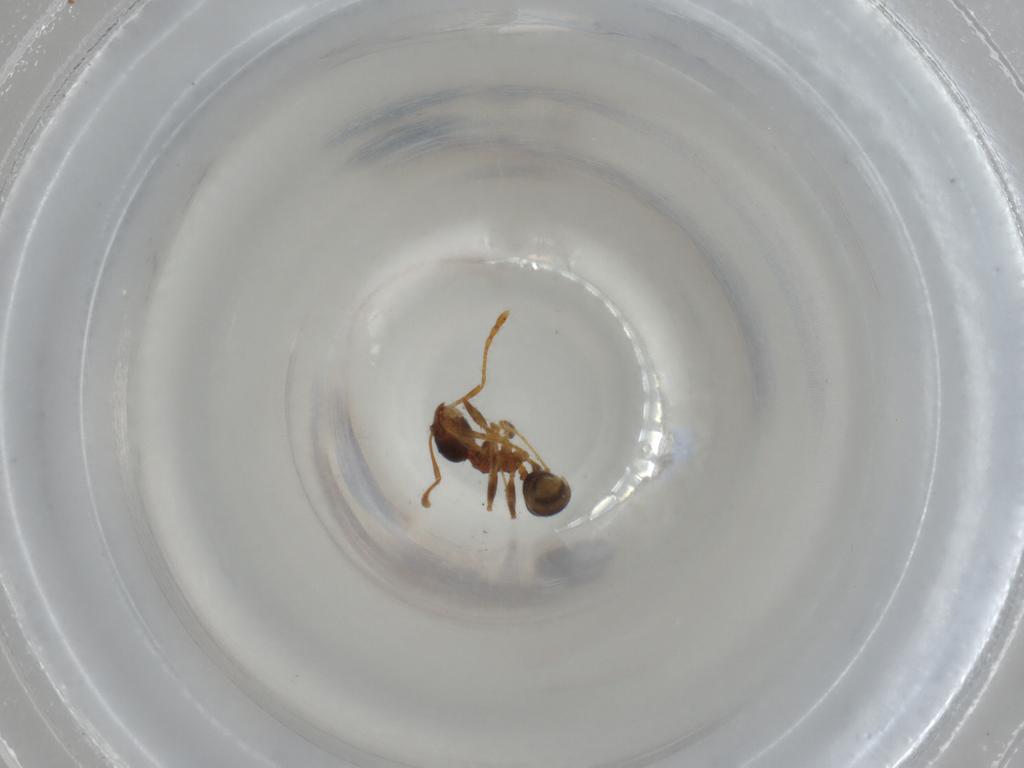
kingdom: Animalia
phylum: Arthropoda
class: Insecta
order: Hymenoptera
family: Formicidae
